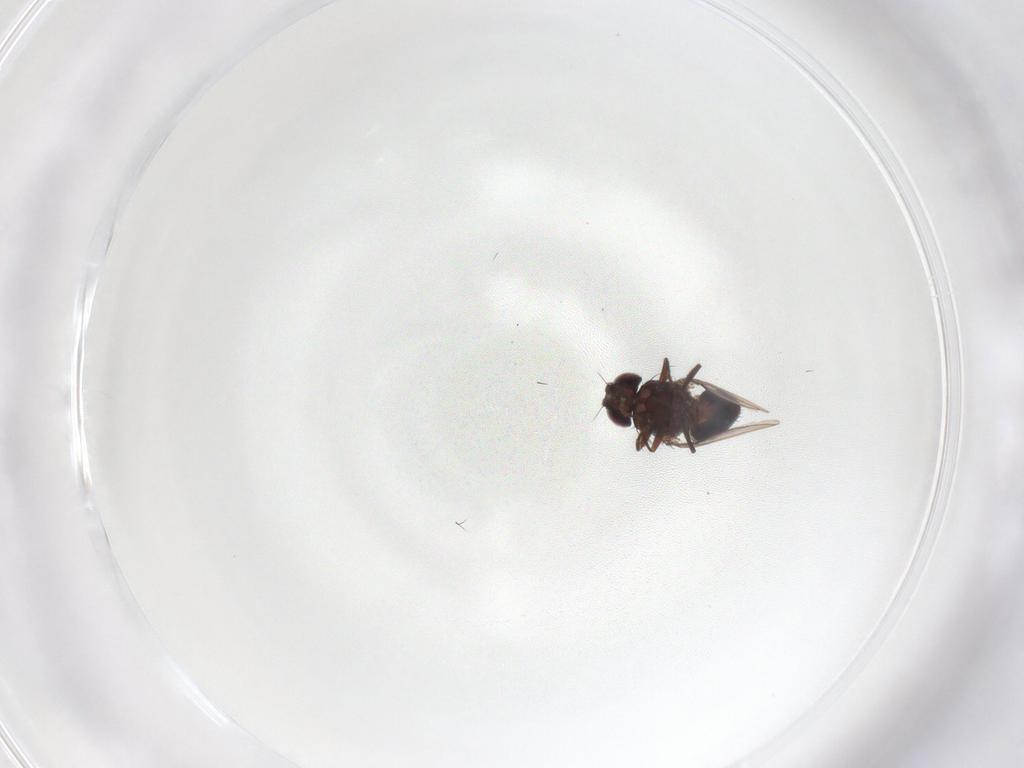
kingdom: Animalia
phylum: Arthropoda
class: Insecta
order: Diptera
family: Carnidae
